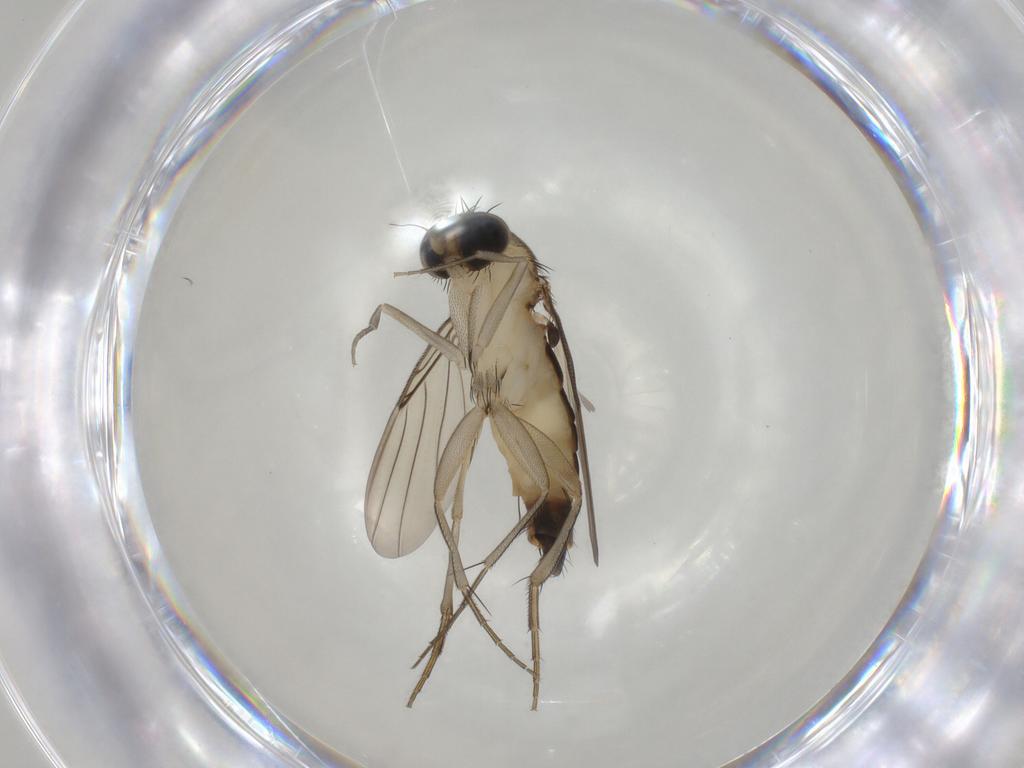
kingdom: Animalia
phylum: Arthropoda
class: Insecta
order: Diptera
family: Phoridae
